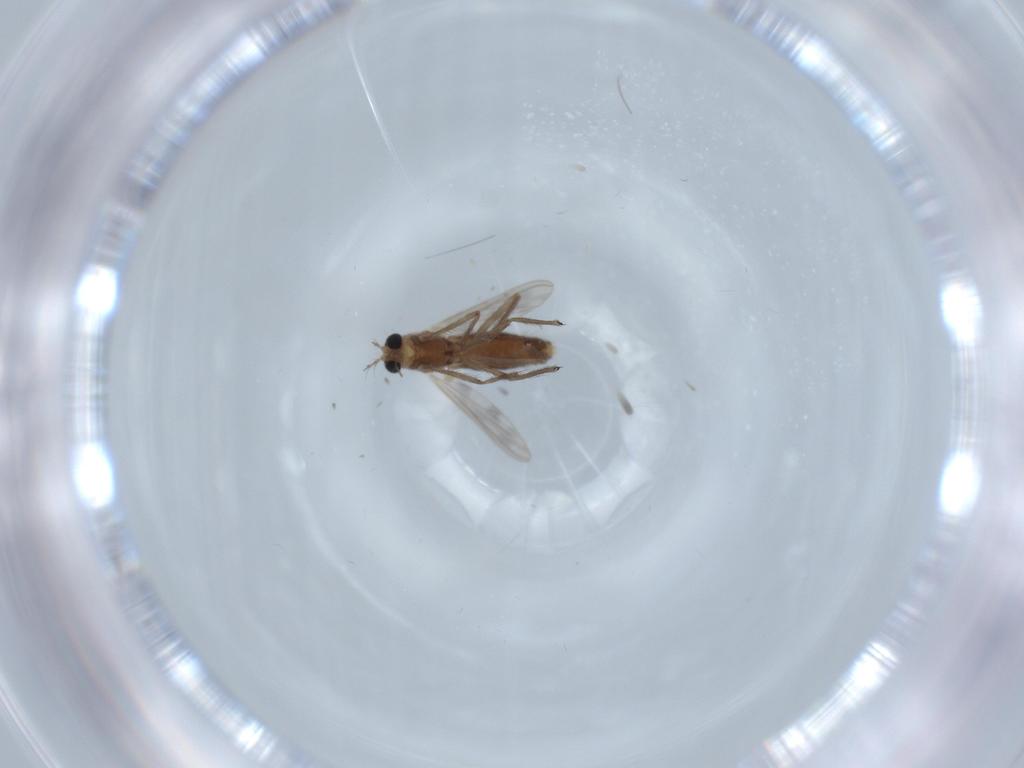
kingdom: Animalia
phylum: Arthropoda
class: Insecta
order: Diptera
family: Chironomidae
